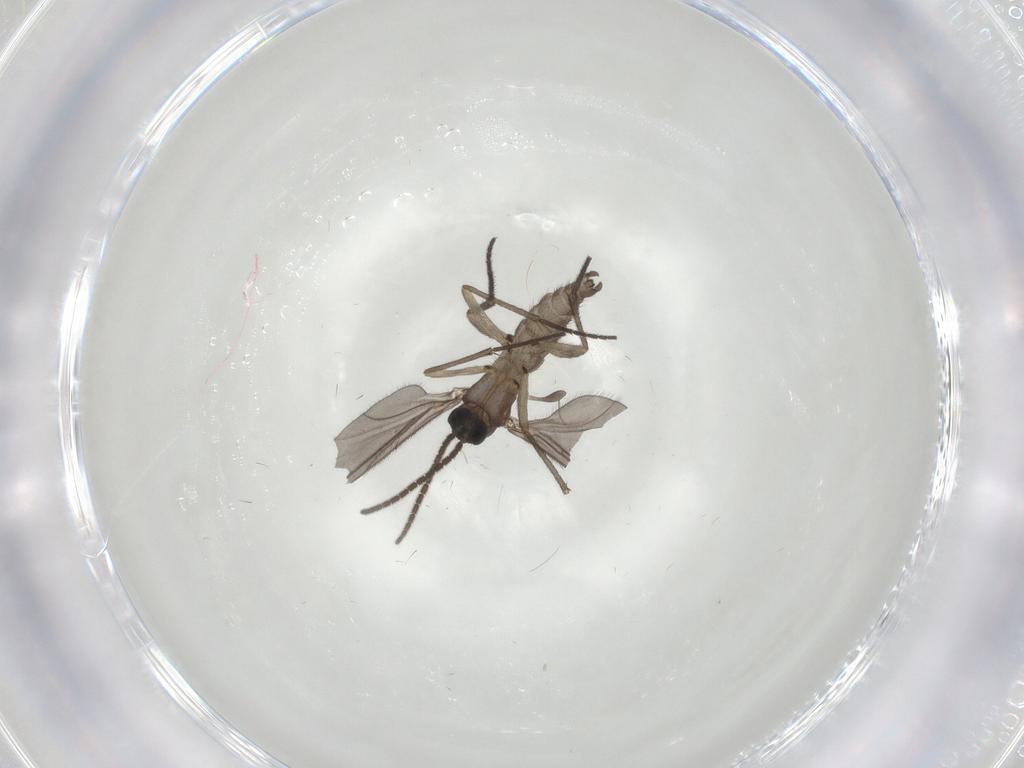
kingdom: Animalia
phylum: Arthropoda
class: Insecta
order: Diptera
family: Sciaridae
